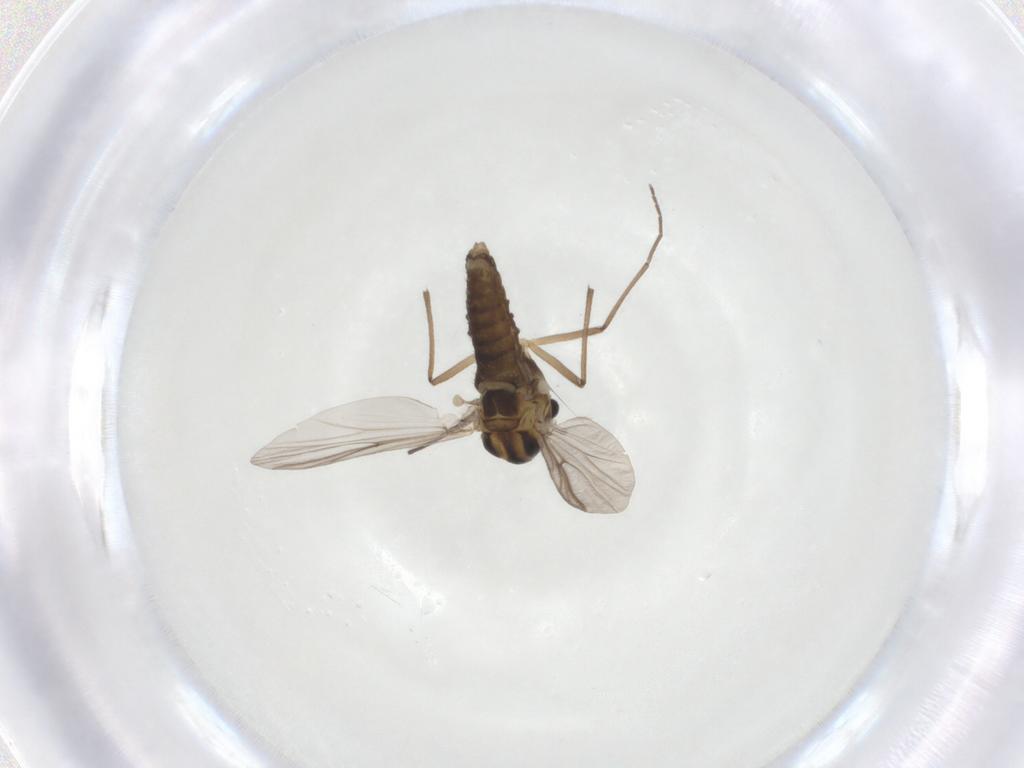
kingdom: Animalia
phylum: Arthropoda
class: Insecta
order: Diptera
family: Chironomidae
